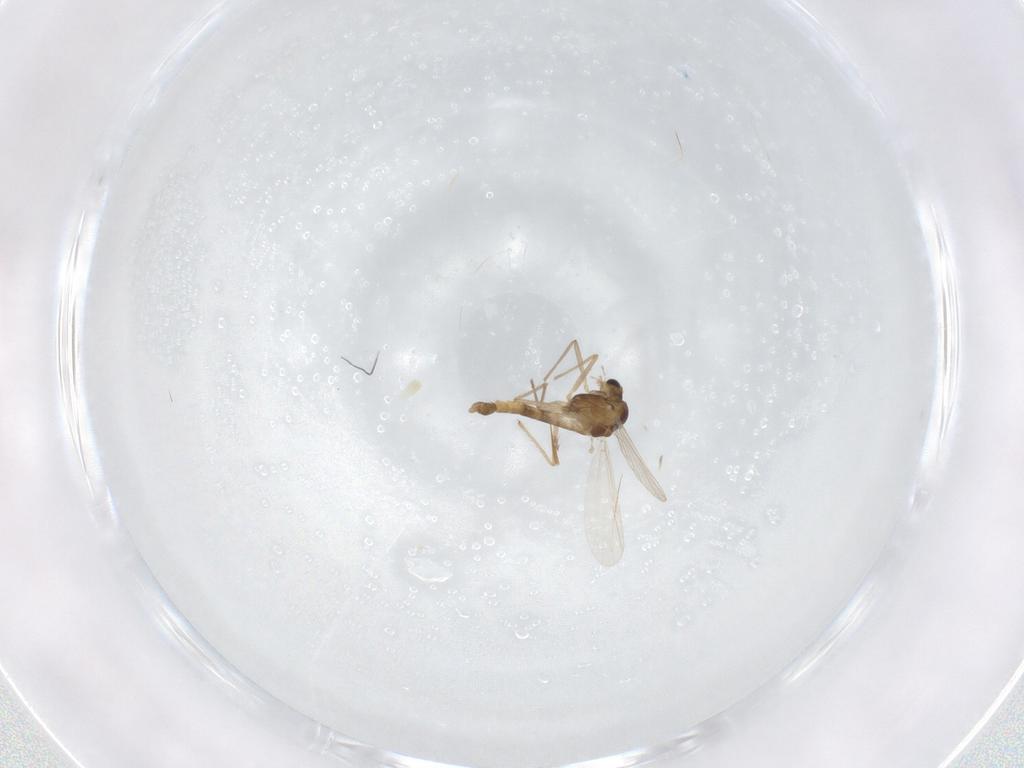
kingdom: Animalia
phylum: Arthropoda
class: Insecta
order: Diptera
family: Chironomidae
